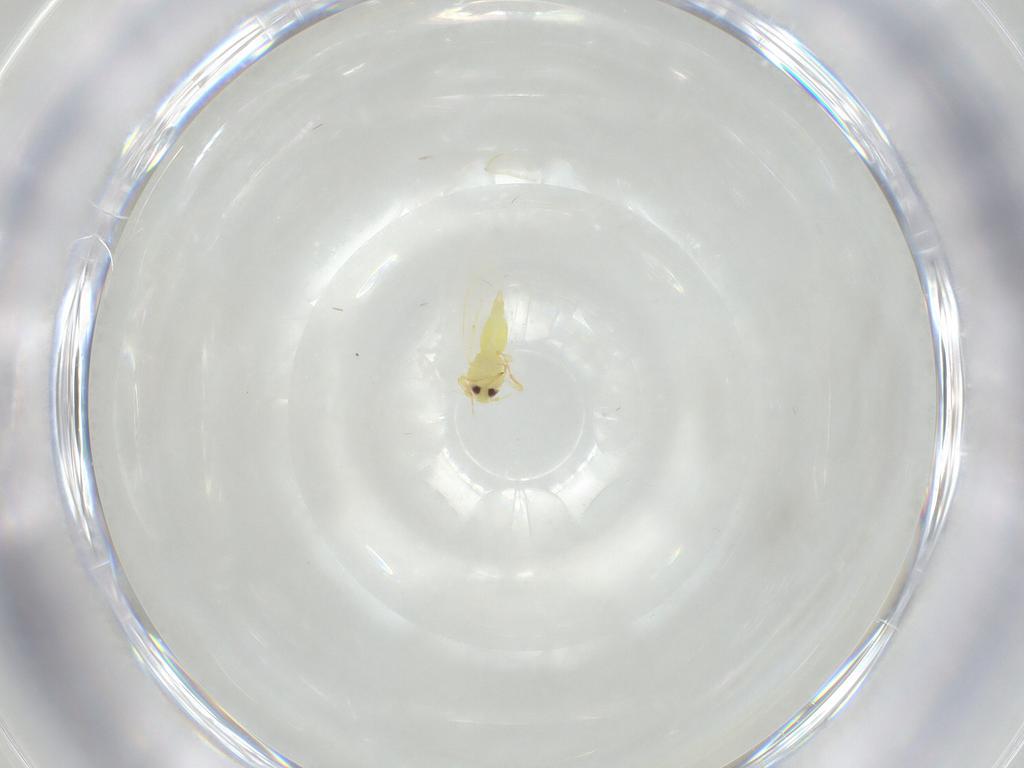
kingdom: Animalia
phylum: Arthropoda
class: Insecta
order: Hemiptera
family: Aleyrodidae
